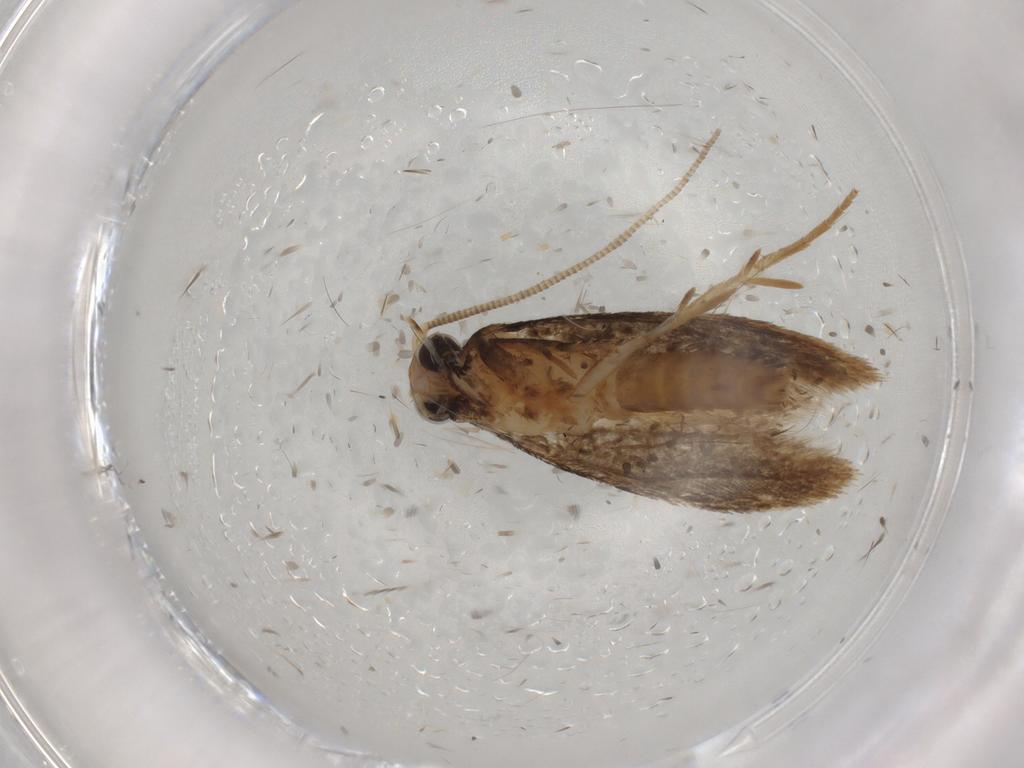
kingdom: Animalia
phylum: Arthropoda
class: Insecta
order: Lepidoptera
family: Tineidae
